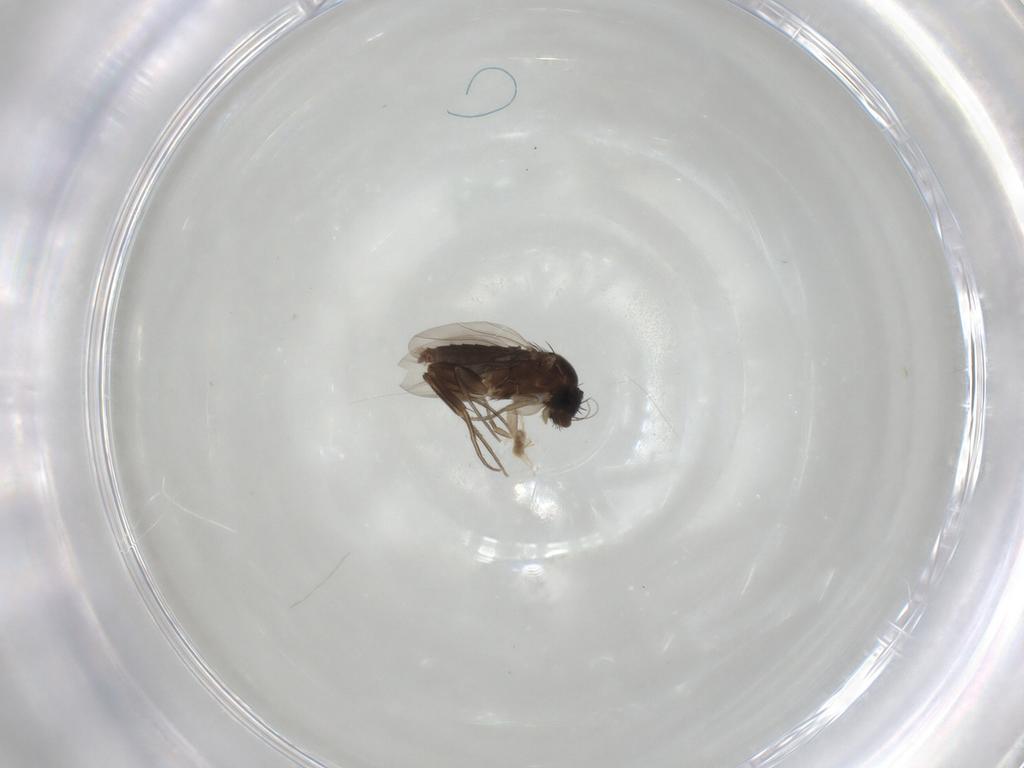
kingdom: Animalia
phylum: Arthropoda
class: Insecta
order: Diptera
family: Phoridae
